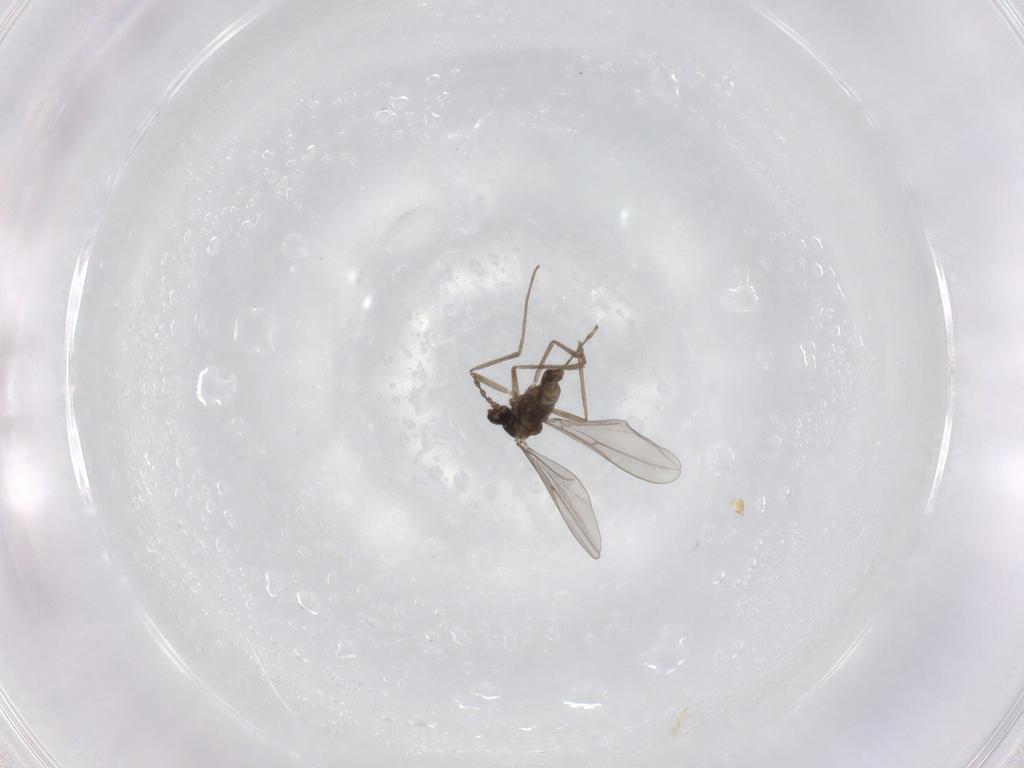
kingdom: Animalia
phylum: Arthropoda
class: Insecta
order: Diptera
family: Cecidomyiidae
